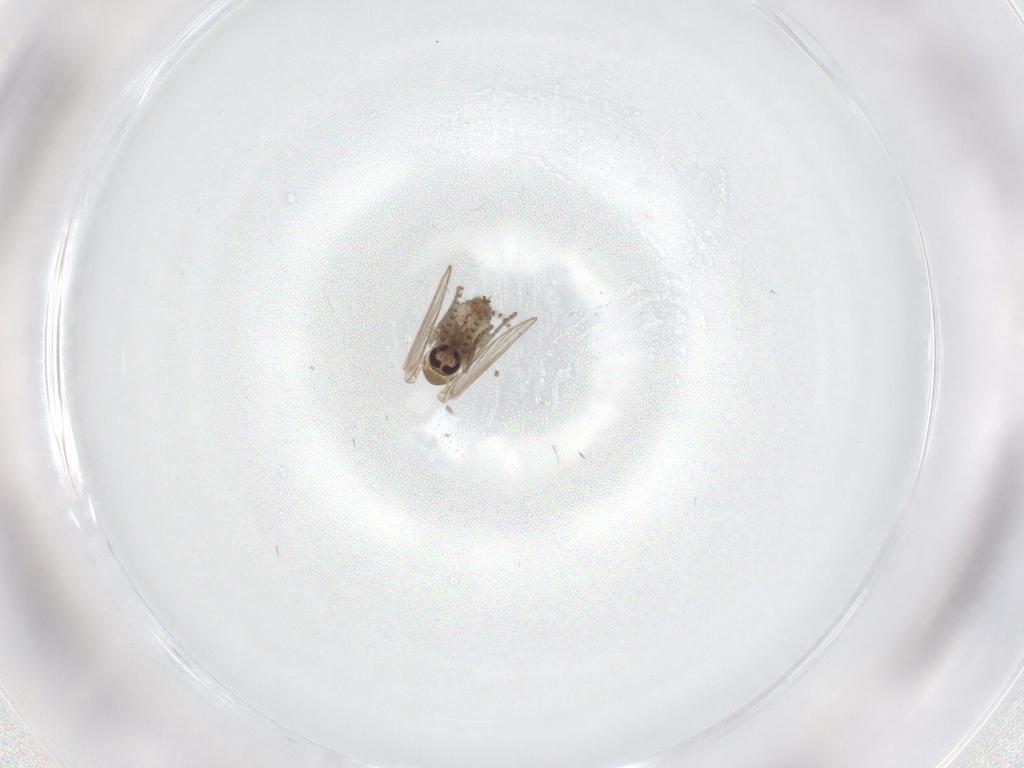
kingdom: Animalia
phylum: Arthropoda
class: Insecta
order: Diptera
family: Psychodidae
